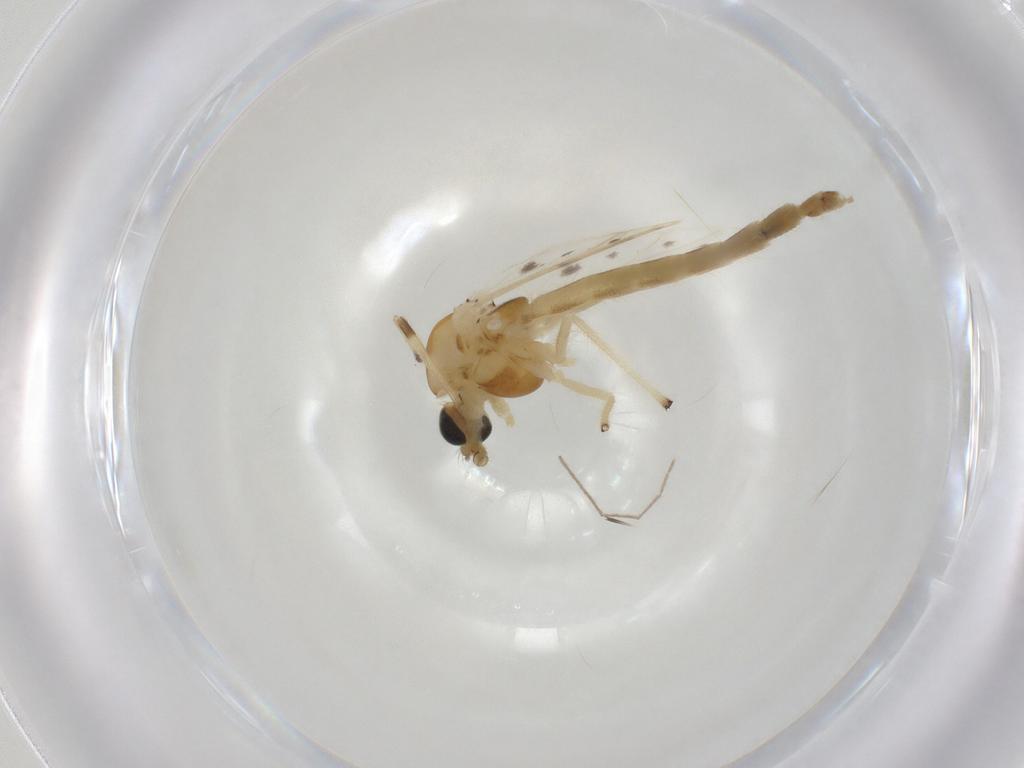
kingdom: Animalia
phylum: Arthropoda
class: Insecta
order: Diptera
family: Chironomidae
